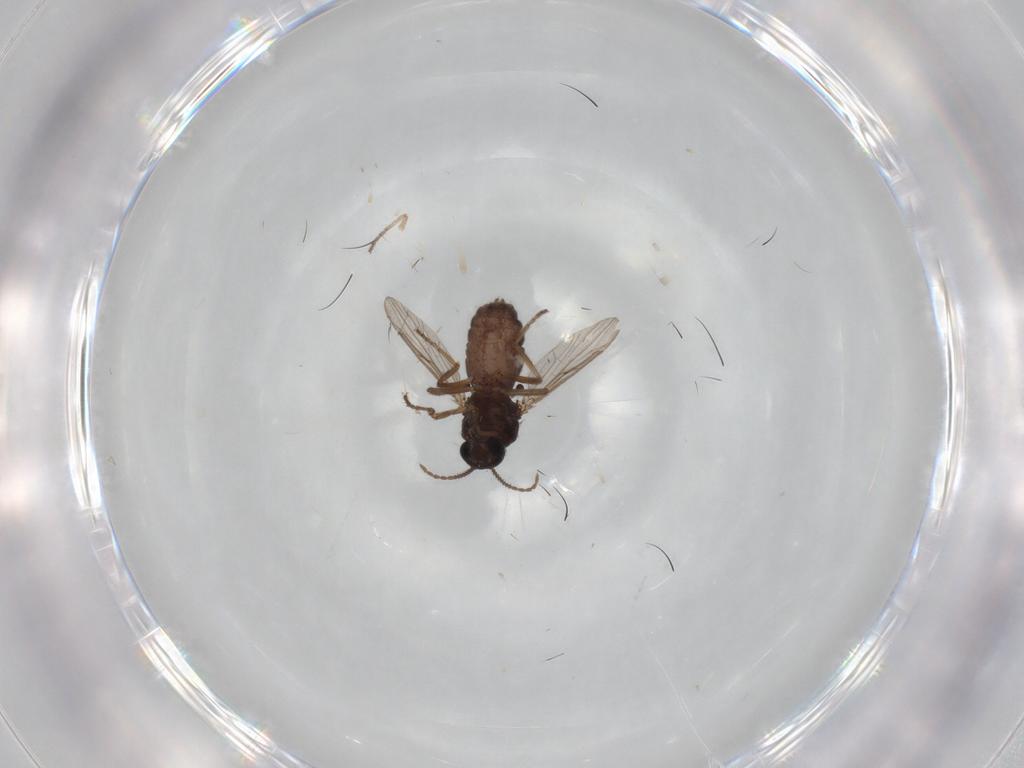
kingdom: Animalia
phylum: Arthropoda
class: Insecta
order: Diptera
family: Ceratopogonidae
